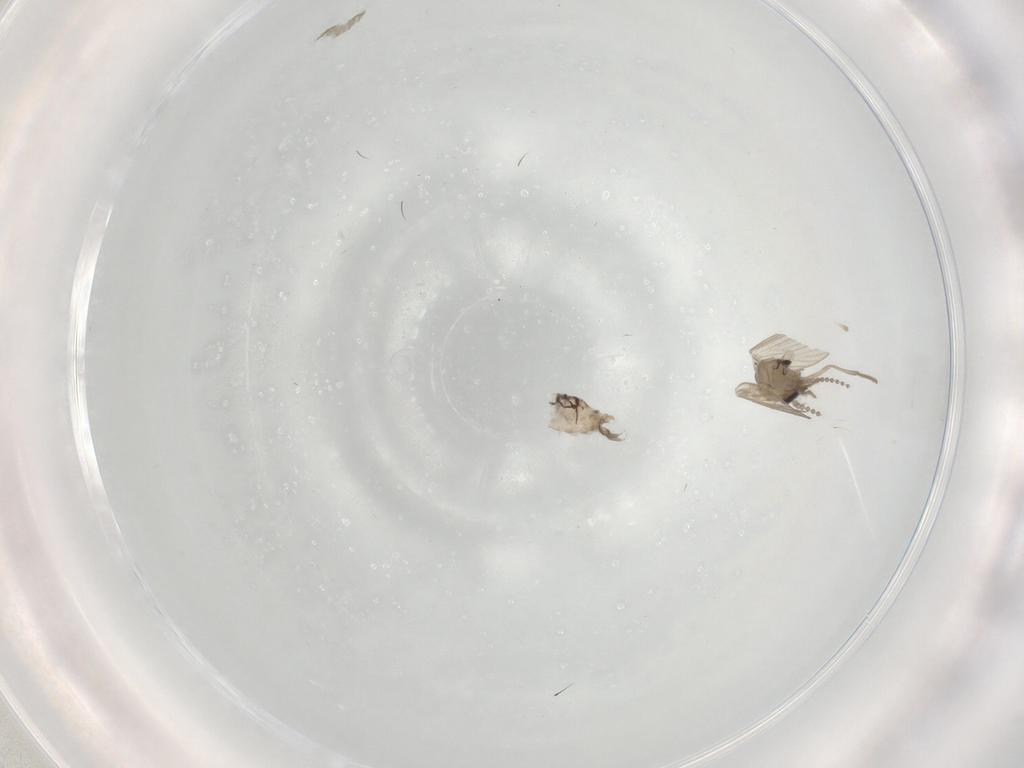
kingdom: Animalia
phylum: Arthropoda
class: Insecta
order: Diptera
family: Psychodidae
